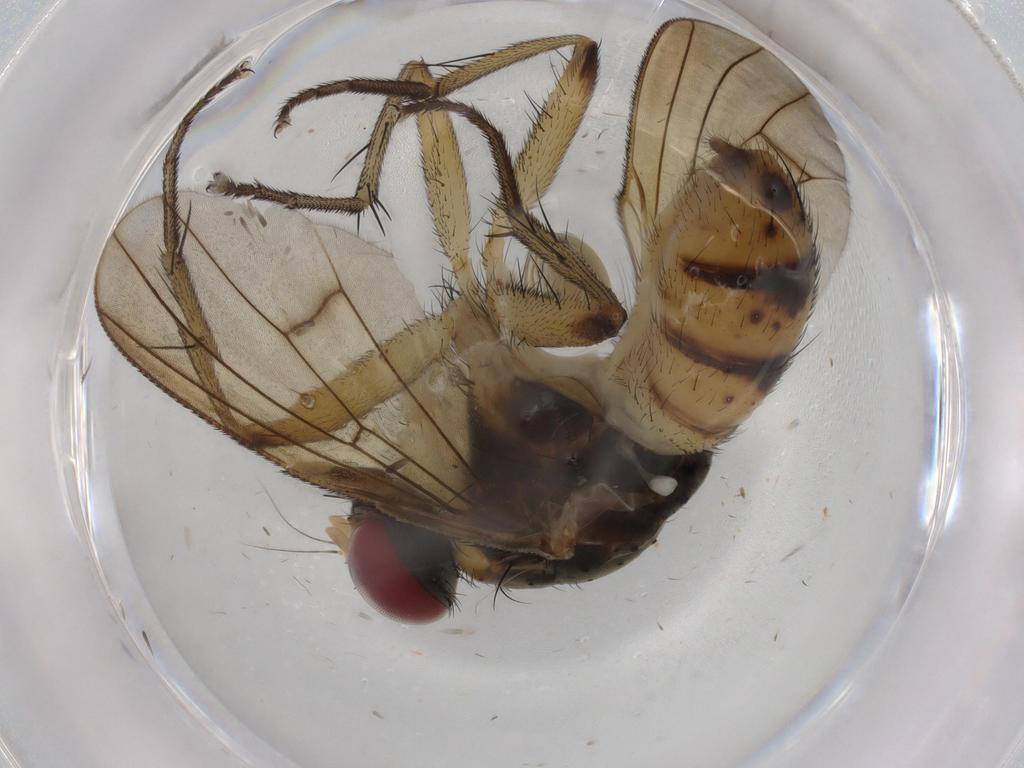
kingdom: Animalia
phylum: Arthropoda
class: Insecta
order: Diptera
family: Muscidae
